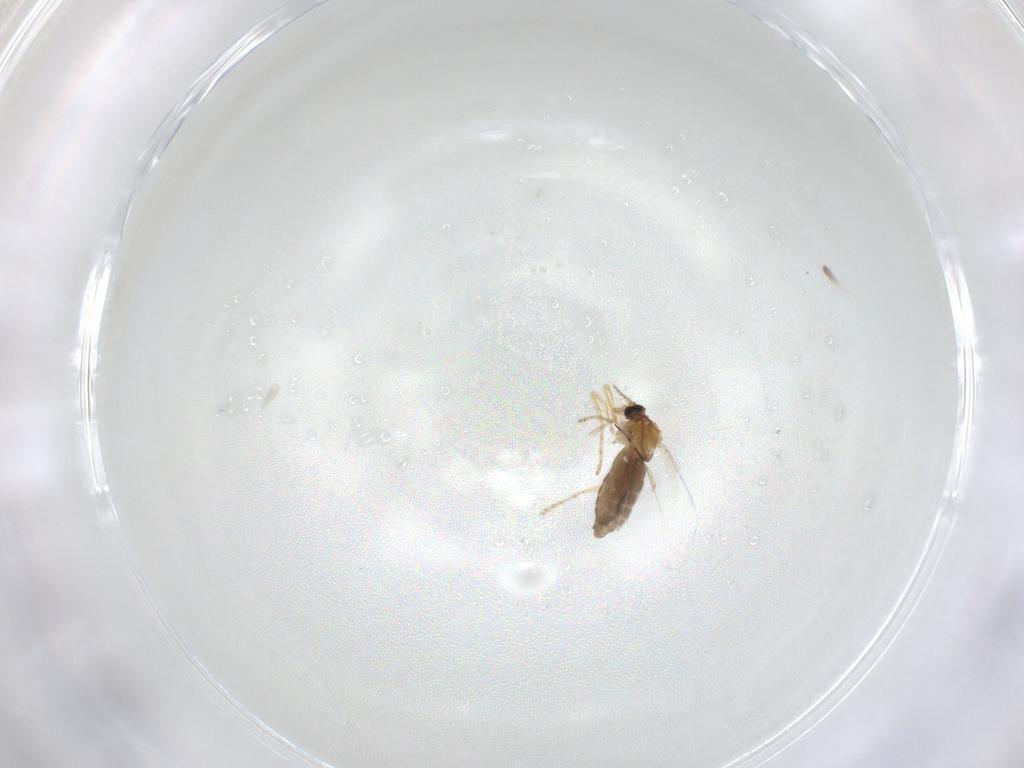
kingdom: Animalia
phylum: Arthropoda
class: Insecta
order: Diptera
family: Ceratopogonidae
